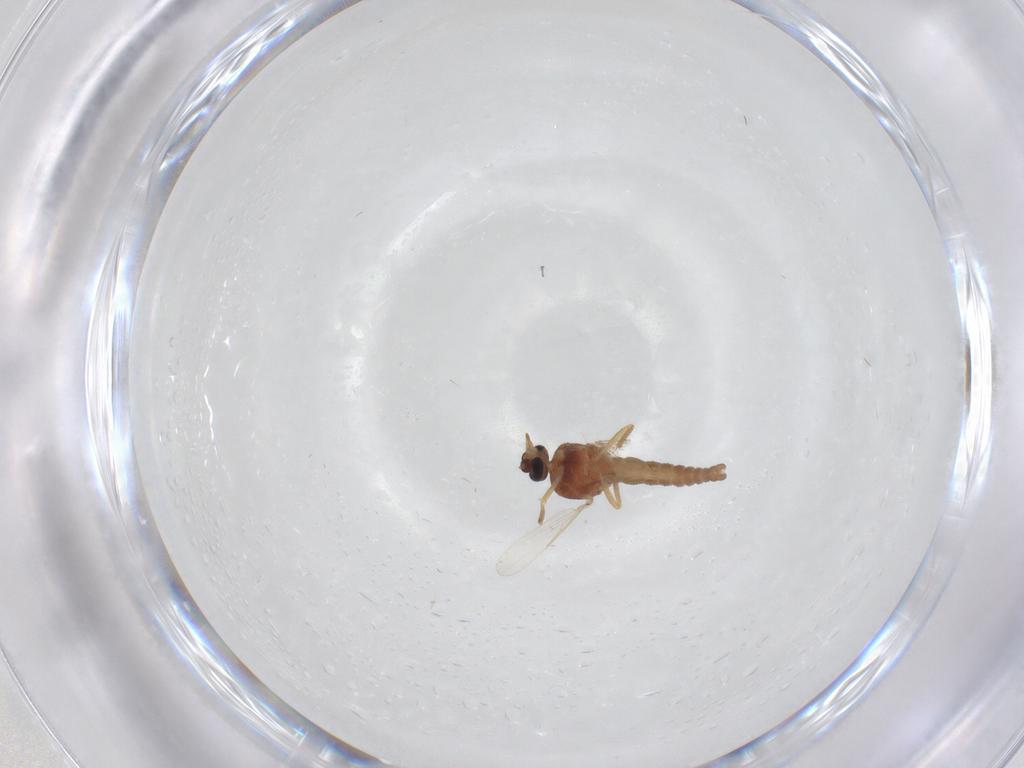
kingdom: Animalia
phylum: Arthropoda
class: Insecta
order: Diptera
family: Ceratopogonidae
